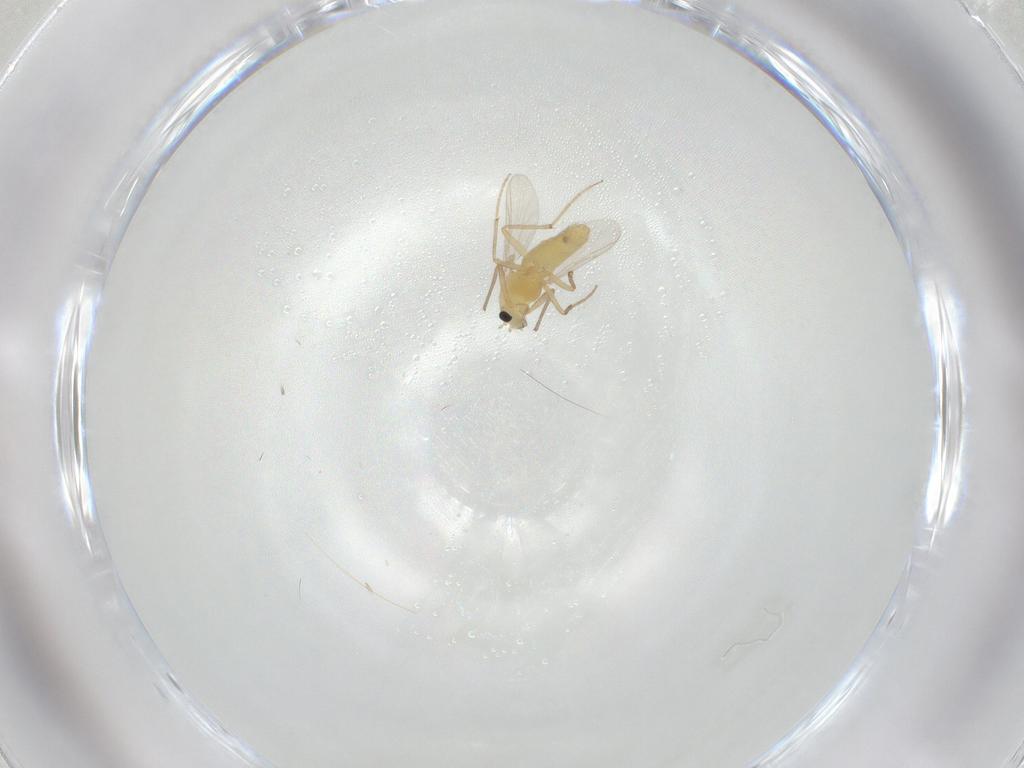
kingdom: Animalia
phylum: Arthropoda
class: Insecta
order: Diptera
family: Chironomidae
